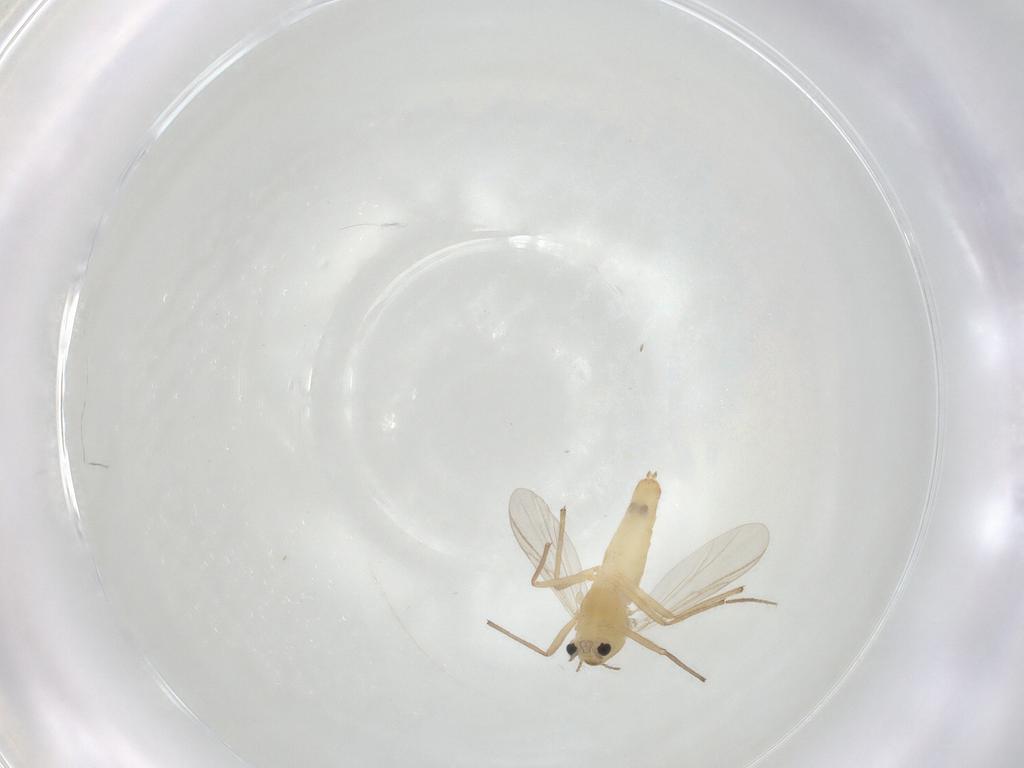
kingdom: Animalia
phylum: Arthropoda
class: Insecta
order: Diptera
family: Chironomidae
